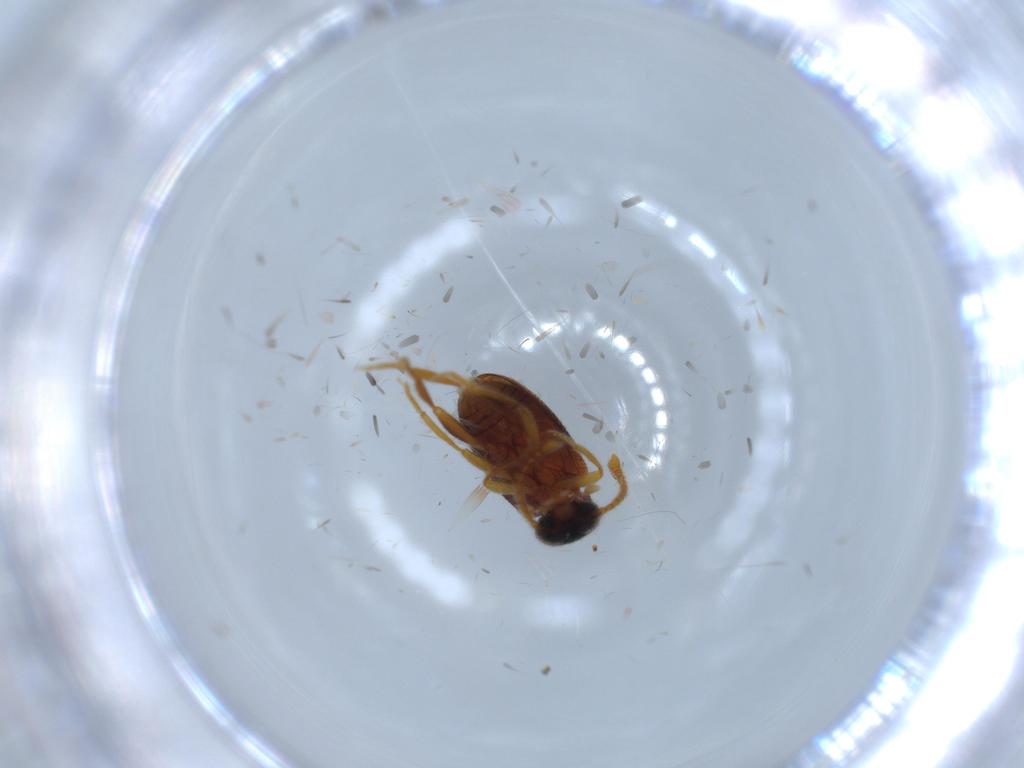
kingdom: Animalia
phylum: Arthropoda
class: Insecta
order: Coleoptera
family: Aderidae
